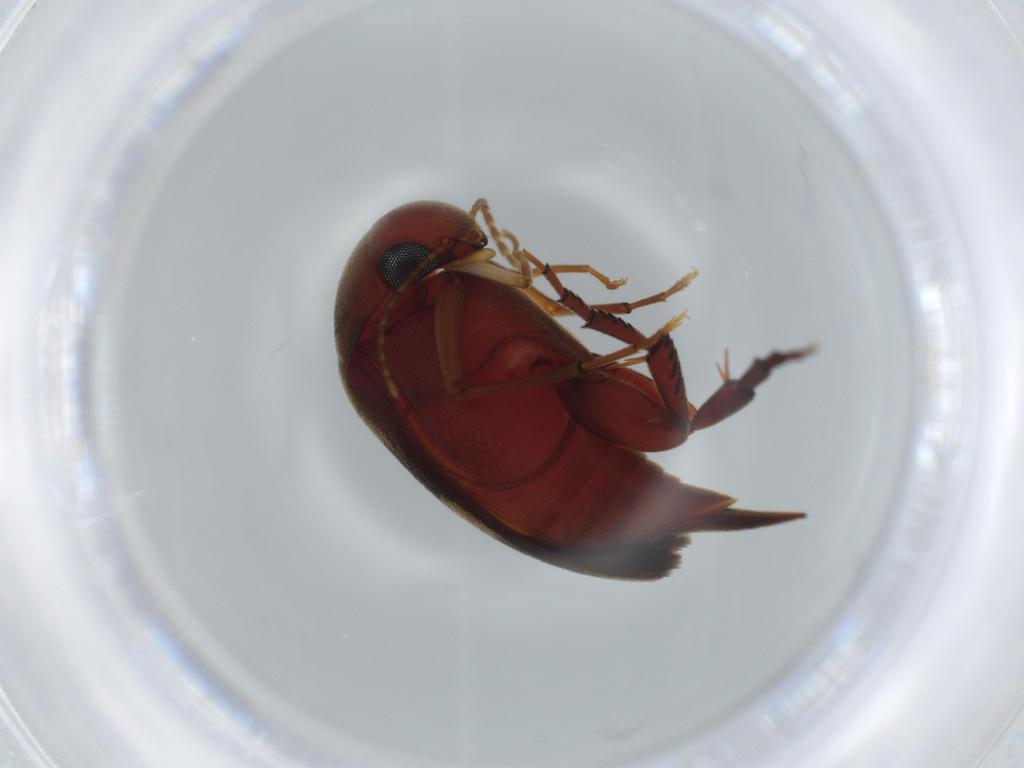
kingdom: Animalia
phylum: Arthropoda
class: Insecta
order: Coleoptera
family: Mordellidae
